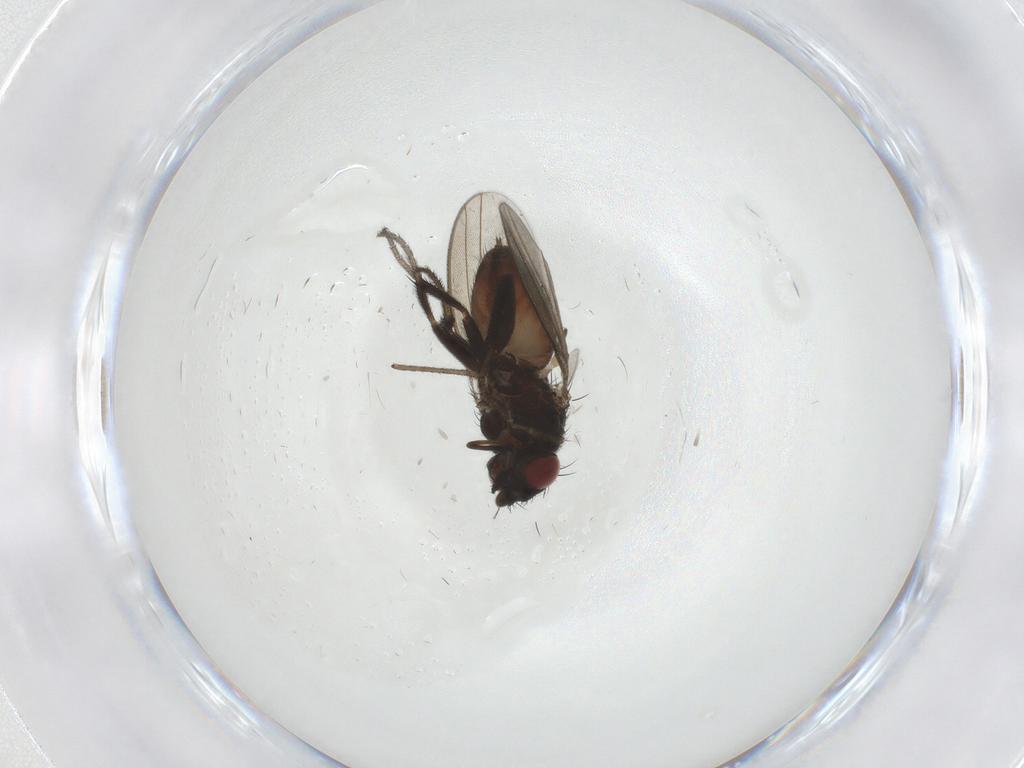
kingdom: Animalia
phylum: Arthropoda
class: Insecta
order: Diptera
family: Milichiidae
